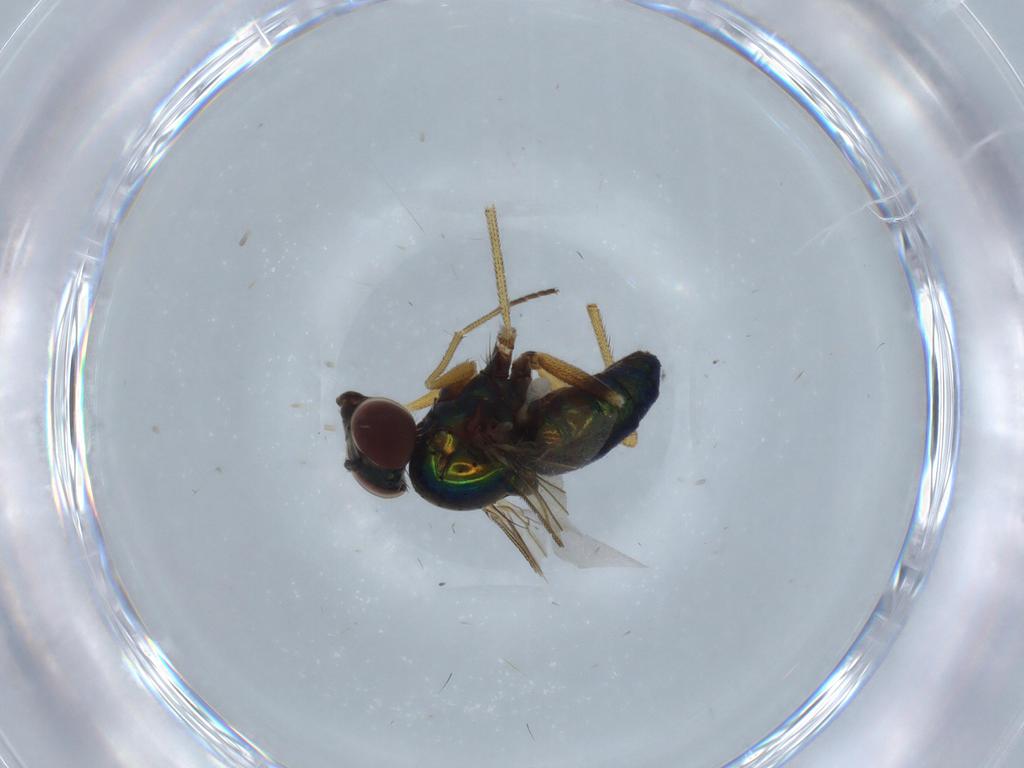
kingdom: Animalia
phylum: Arthropoda
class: Insecta
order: Diptera
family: Dolichopodidae
